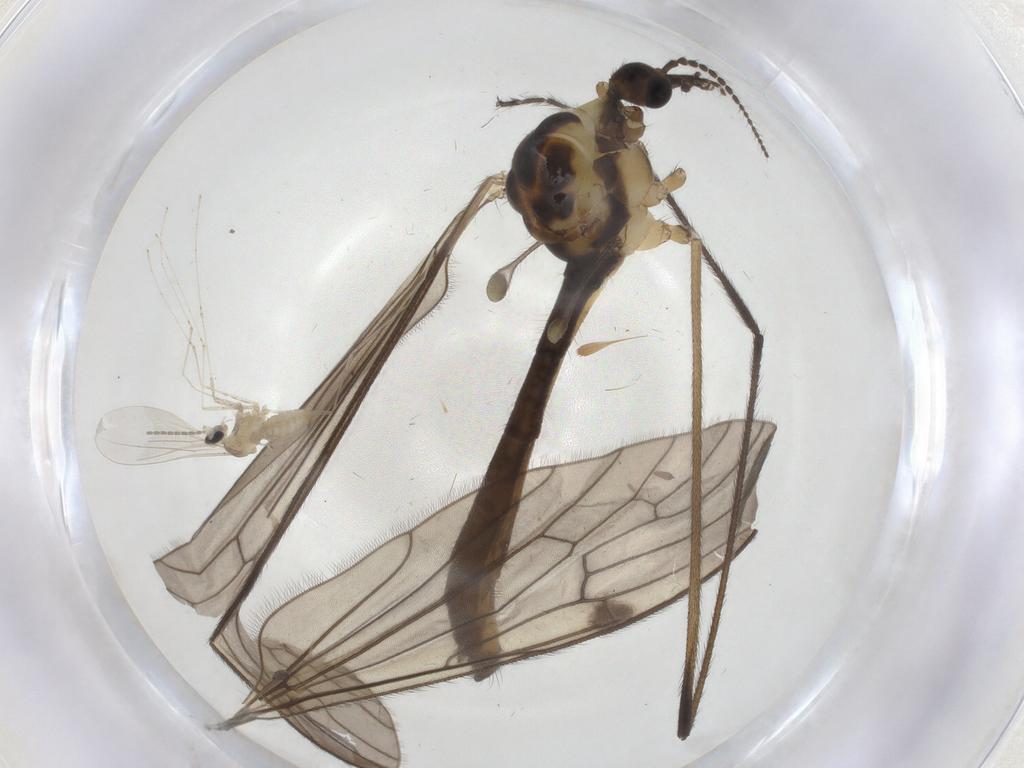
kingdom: Animalia
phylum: Arthropoda
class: Insecta
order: Diptera
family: Limoniidae
